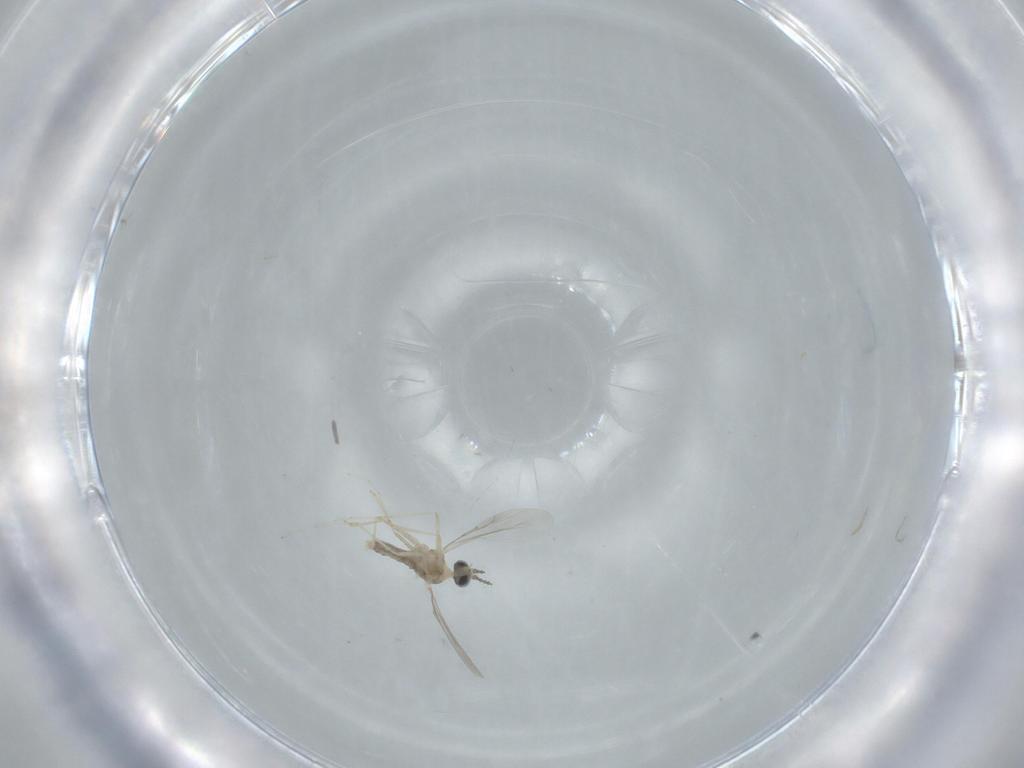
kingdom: Animalia
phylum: Arthropoda
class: Insecta
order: Diptera
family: Cecidomyiidae
